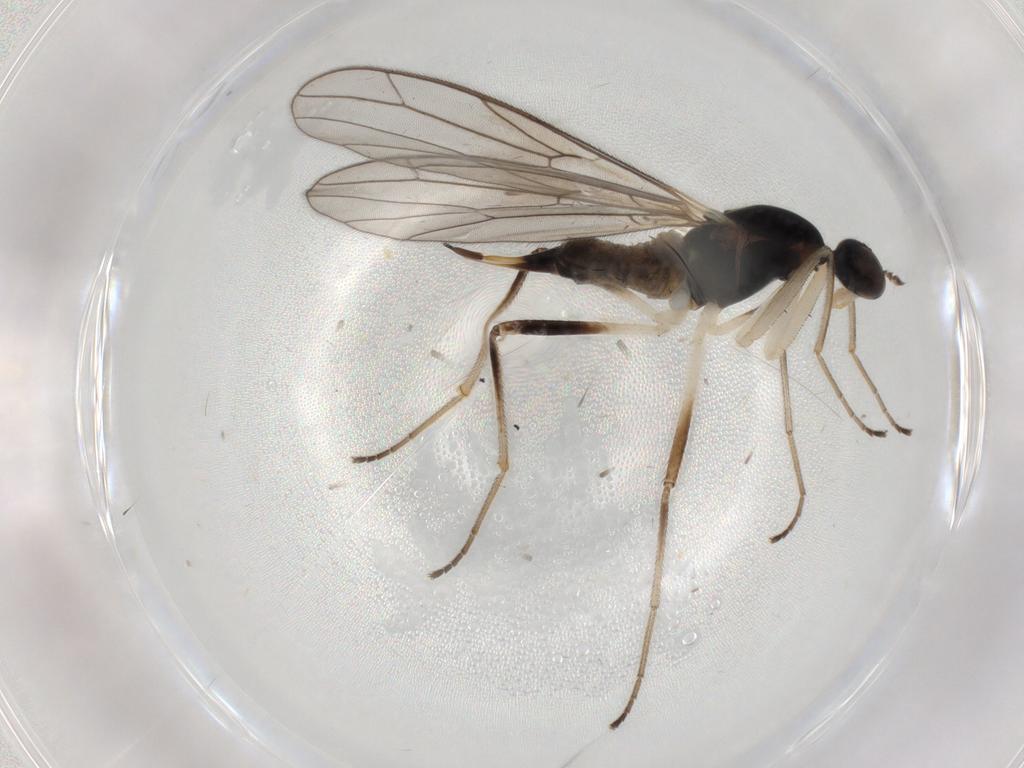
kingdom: Animalia
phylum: Arthropoda
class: Insecta
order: Diptera
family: Empididae
